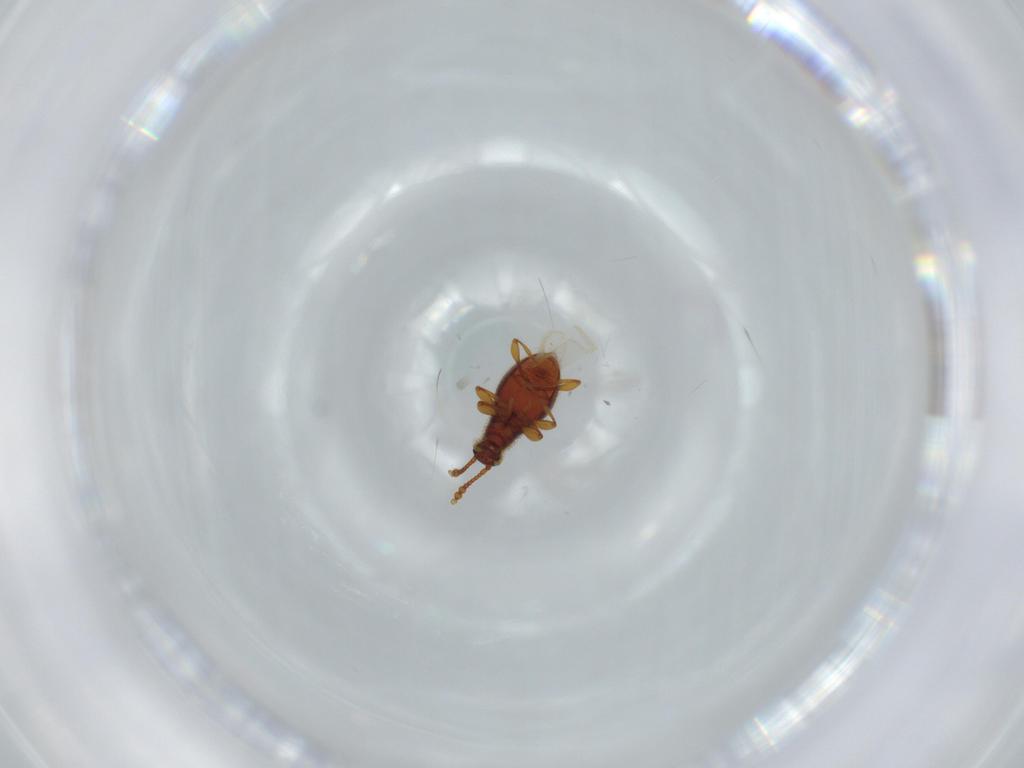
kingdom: Animalia
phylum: Arthropoda
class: Insecta
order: Coleoptera
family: Staphylinidae
